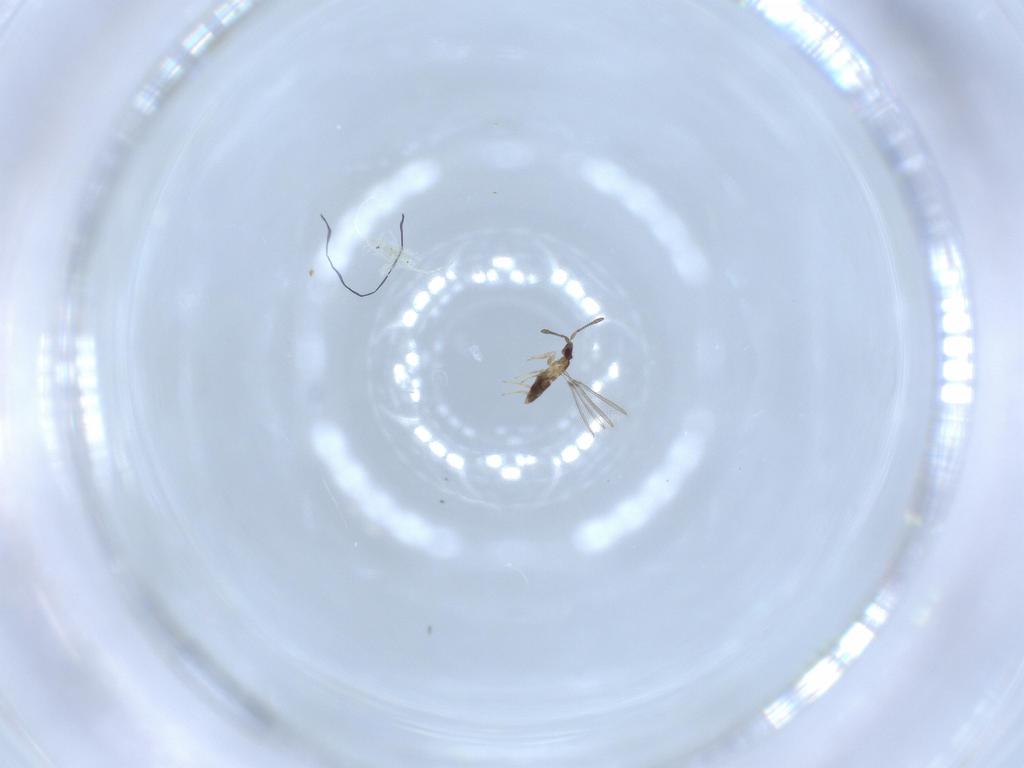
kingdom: Animalia
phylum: Arthropoda
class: Insecta
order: Hymenoptera
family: Mymaridae
